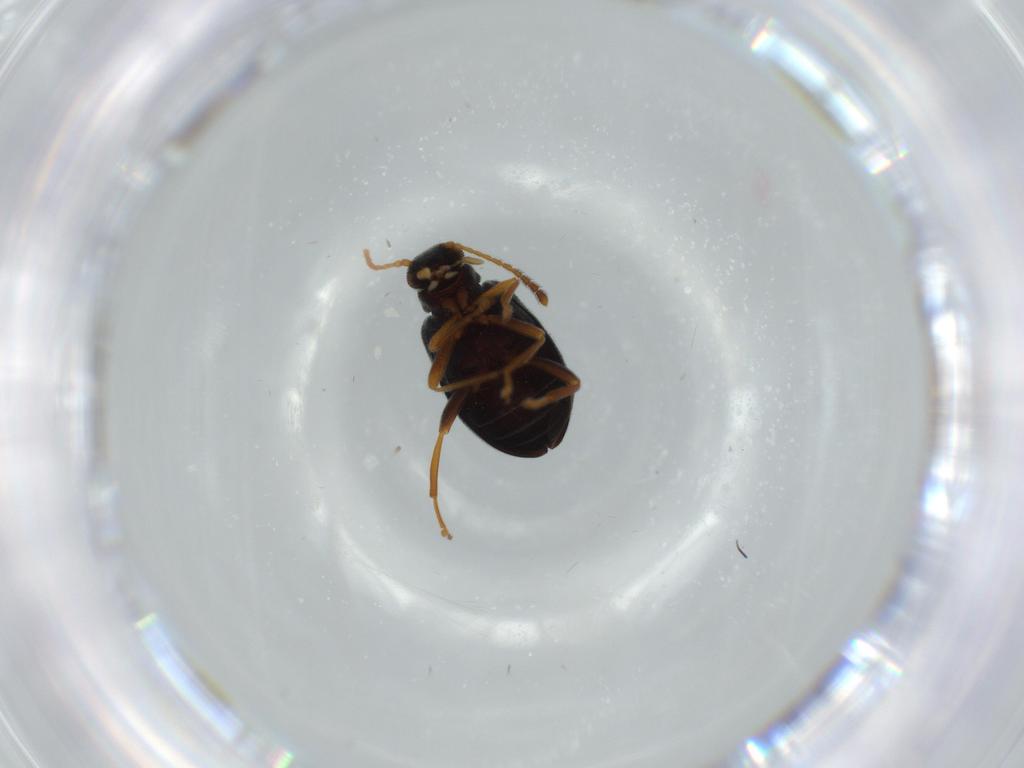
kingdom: Animalia
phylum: Arthropoda
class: Insecta
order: Coleoptera
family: Aderidae
